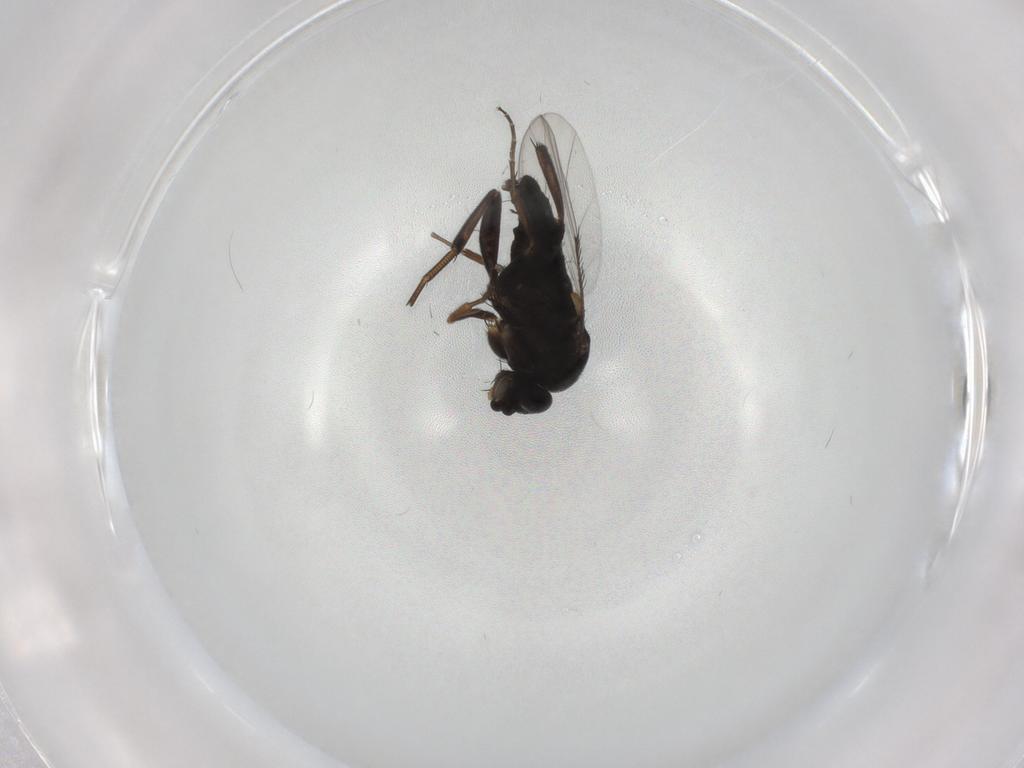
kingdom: Animalia
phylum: Arthropoda
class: Insecta
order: Diptera
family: Phoridae
